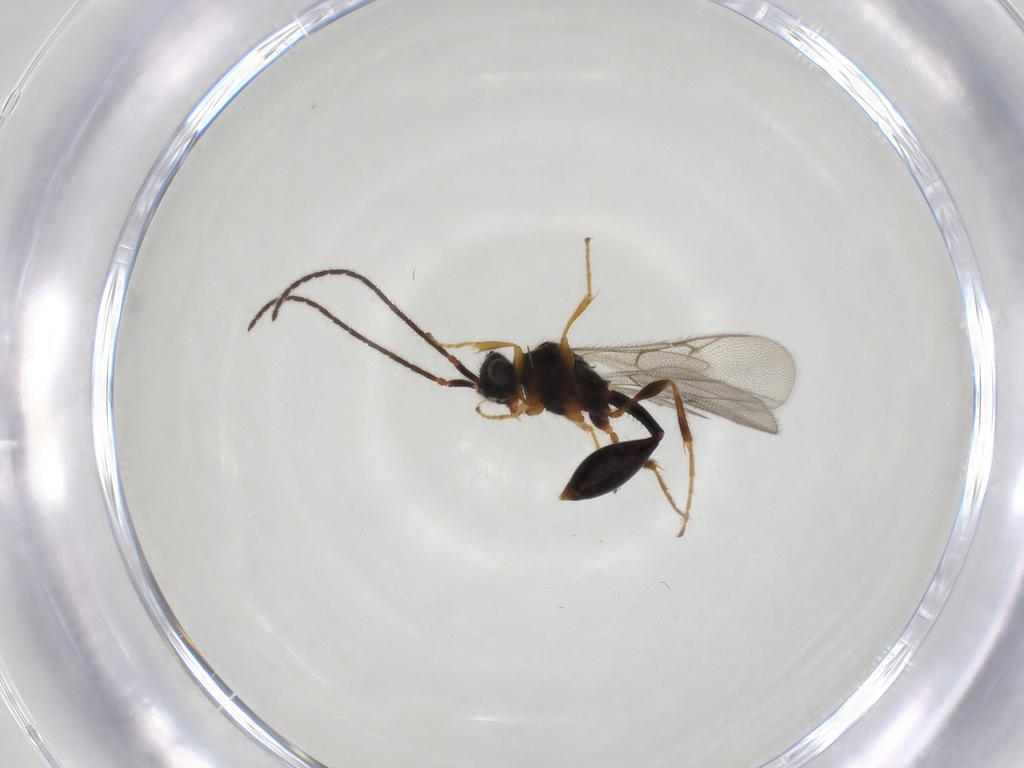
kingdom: Animalia
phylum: Arthropoda
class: Insecta
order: Hymenoptera
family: Diapriidae
